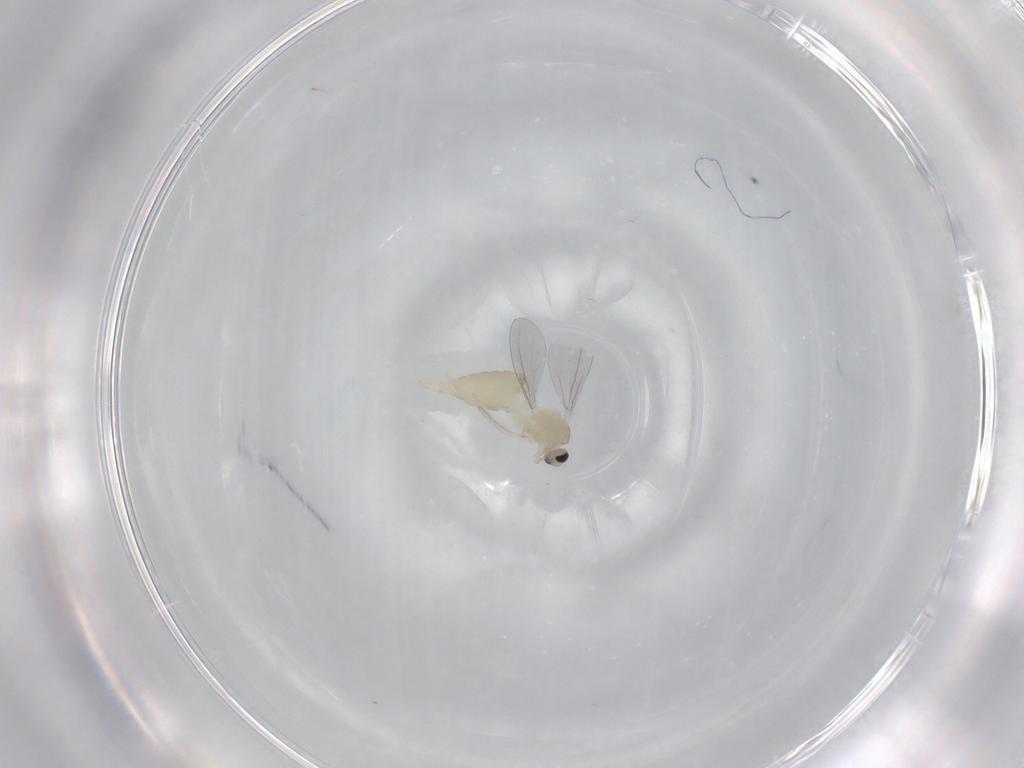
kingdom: Animalia
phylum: Arthropoda
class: Insecta
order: Diptera
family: Cecidomyiidae
